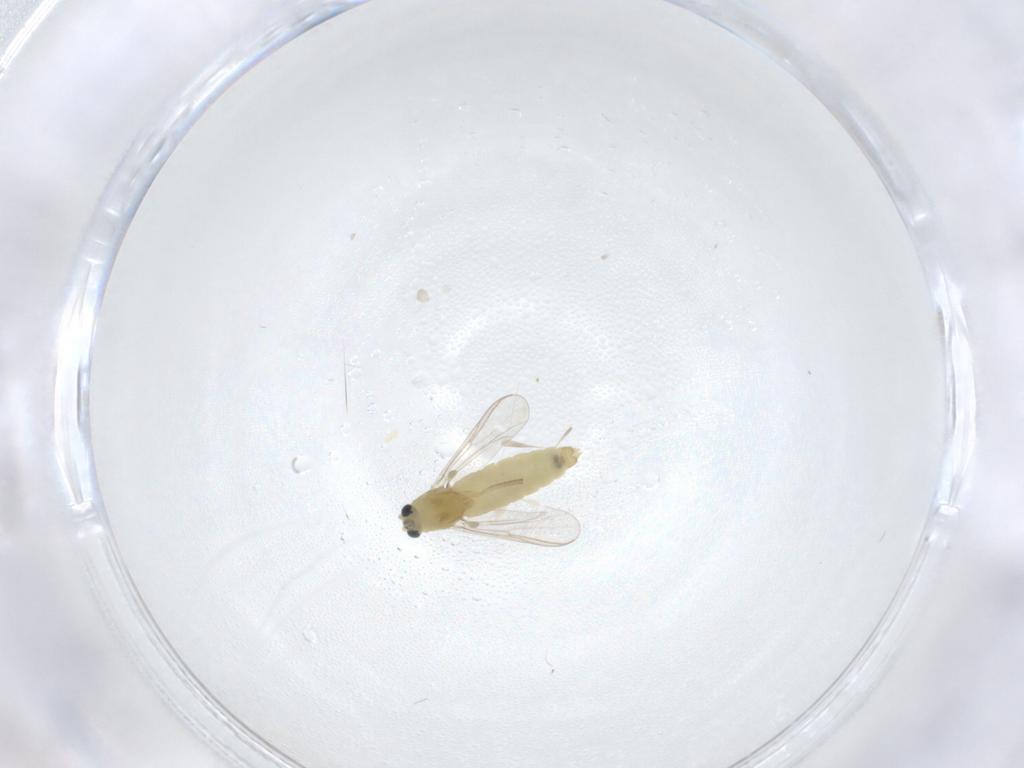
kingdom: Animalia
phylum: Arthropoda
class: Insecta
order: Diptera
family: Chironomidae
